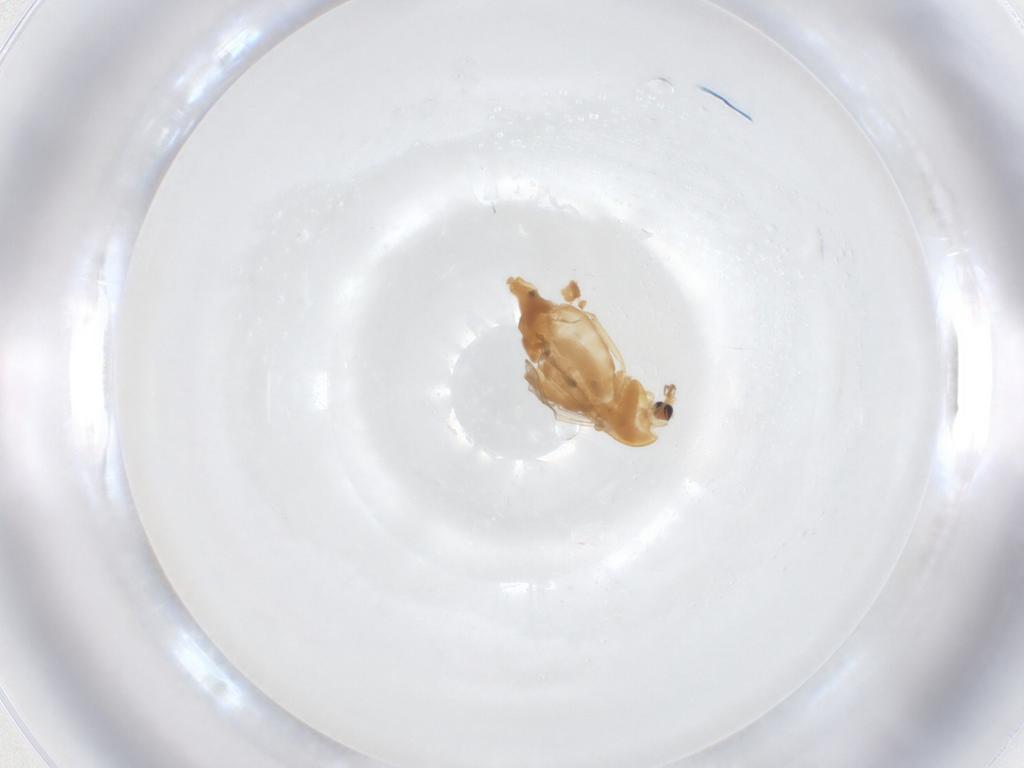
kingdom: Animalia
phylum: Arthropoda
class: Insecta
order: Diptera
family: Chironomidae
